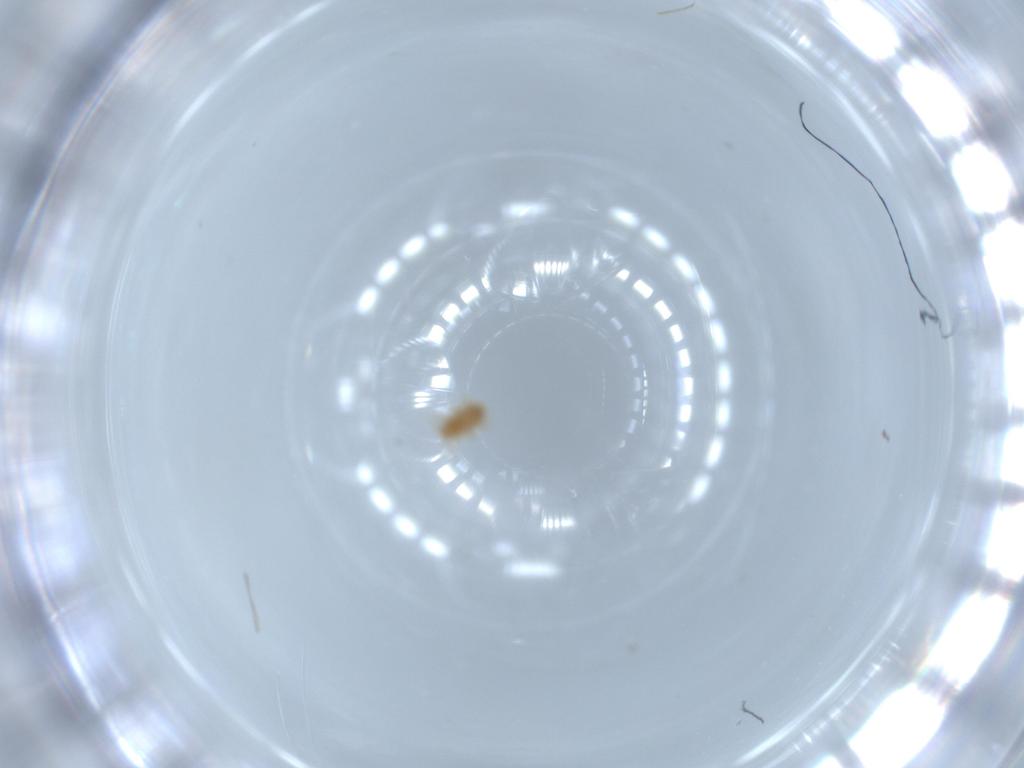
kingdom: Animalia
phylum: Arthropoda
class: Insecta
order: Lepidoptera
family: Tineidae
